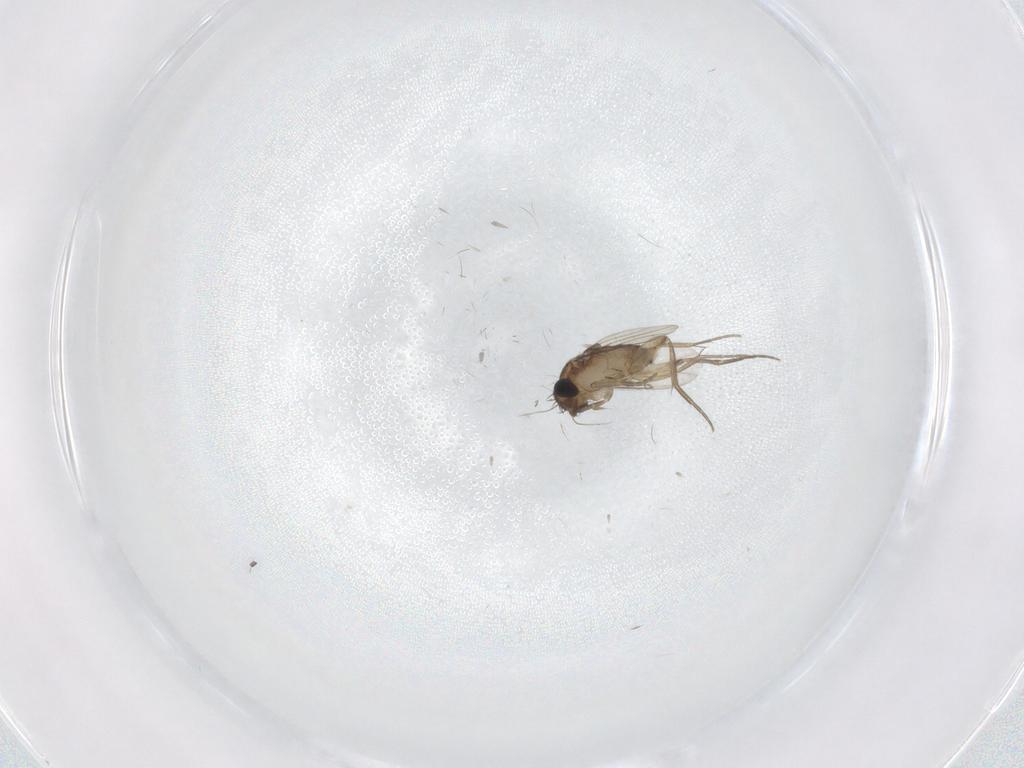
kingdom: Animalia
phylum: Arthropoda
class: Insecta
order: Diptera
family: Phoridae
